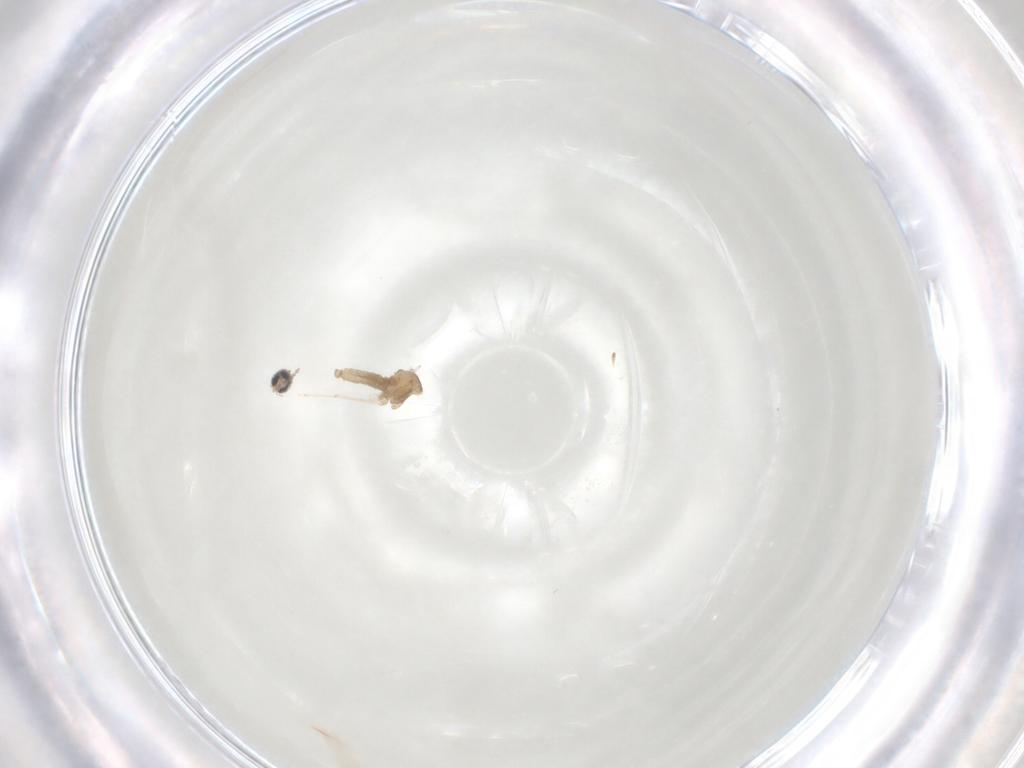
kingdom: Animalia
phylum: Arthropoda
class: Insecta
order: Diptera
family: Cecidomyiidae
